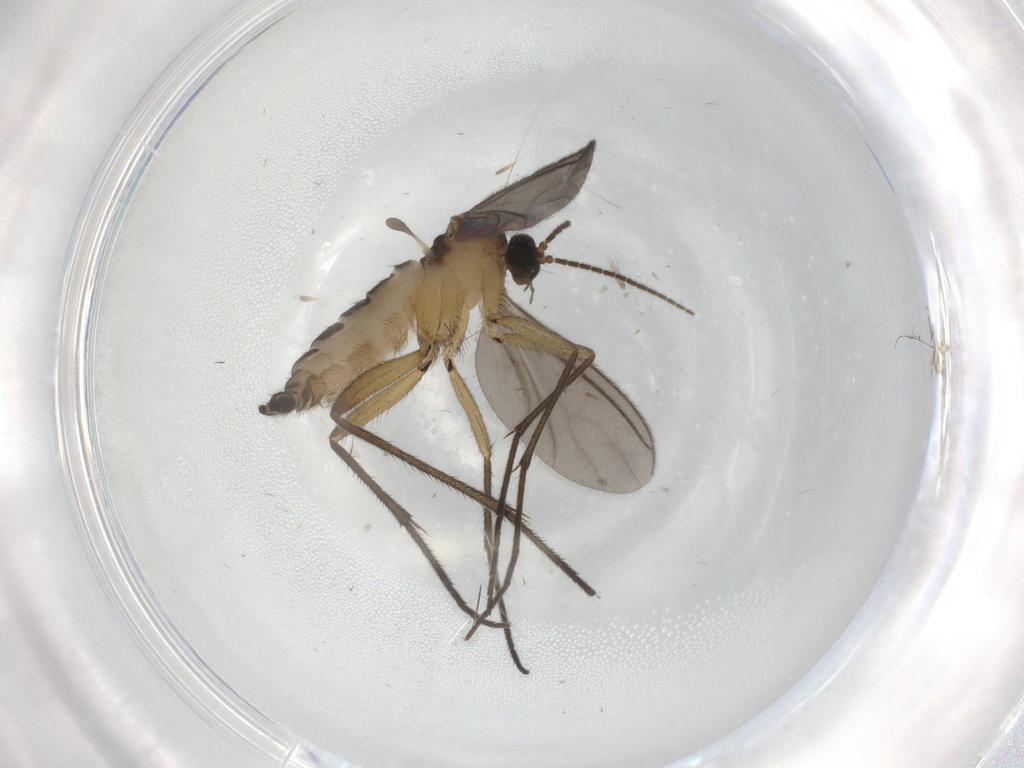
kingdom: Animalia
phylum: Arthropoda
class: Insecta
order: Diptera
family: Sciaridae
